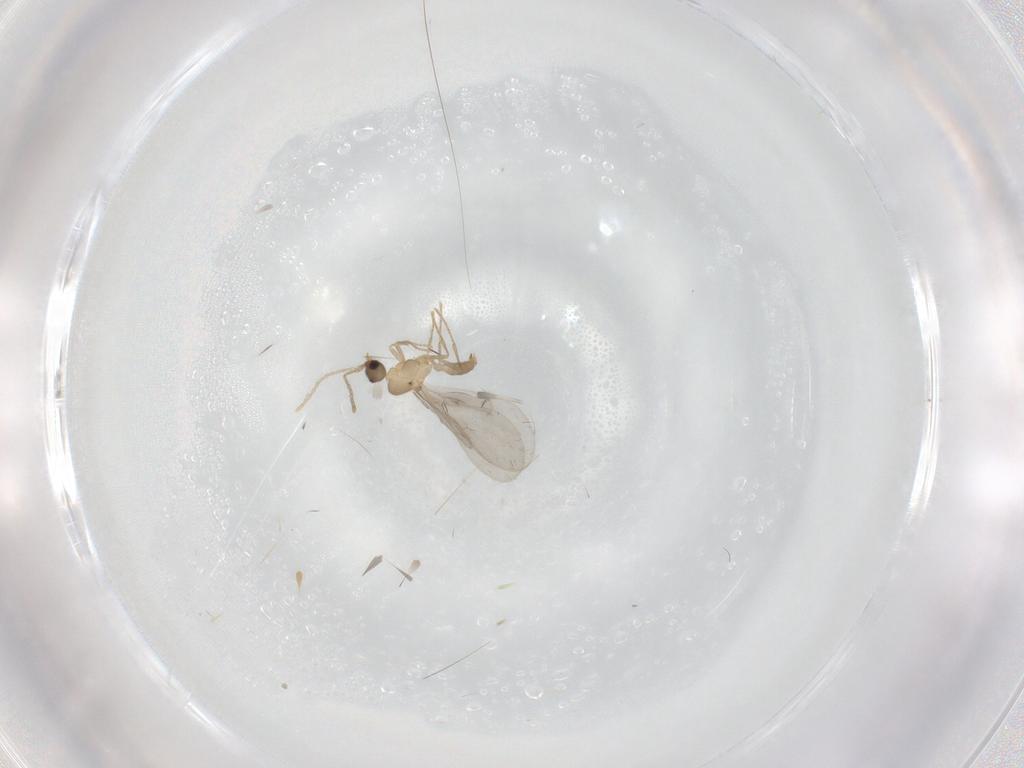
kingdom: Animalia
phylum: Arthropoda
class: Insecta
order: Hymenoptera
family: Formicidae
